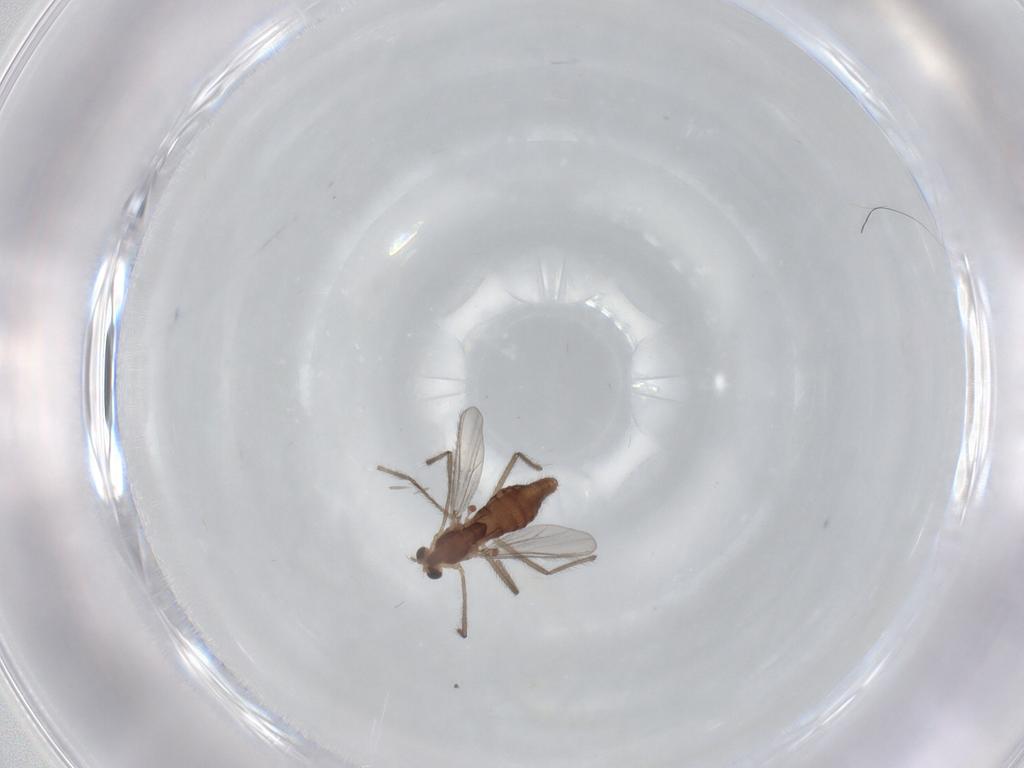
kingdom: Animalia
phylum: Arthropoda
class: Insecta
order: Diptera
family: Chironomidae
